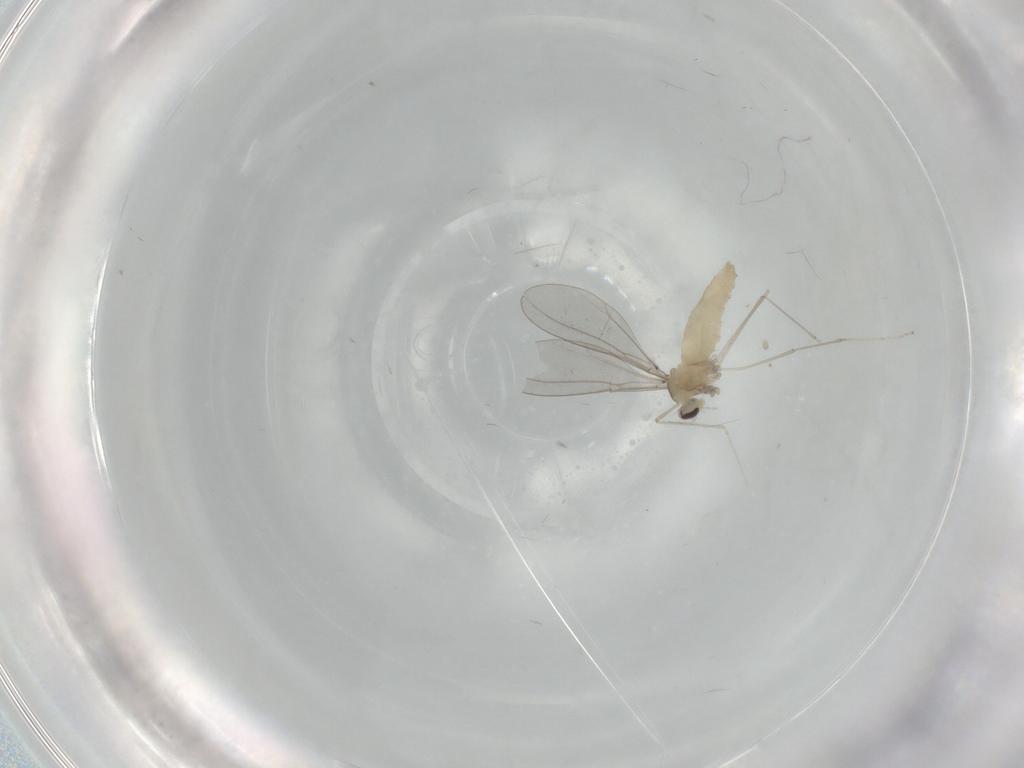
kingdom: Animalia
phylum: Arthropoda
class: Insecta
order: Diptera
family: Cecidomyiidae
